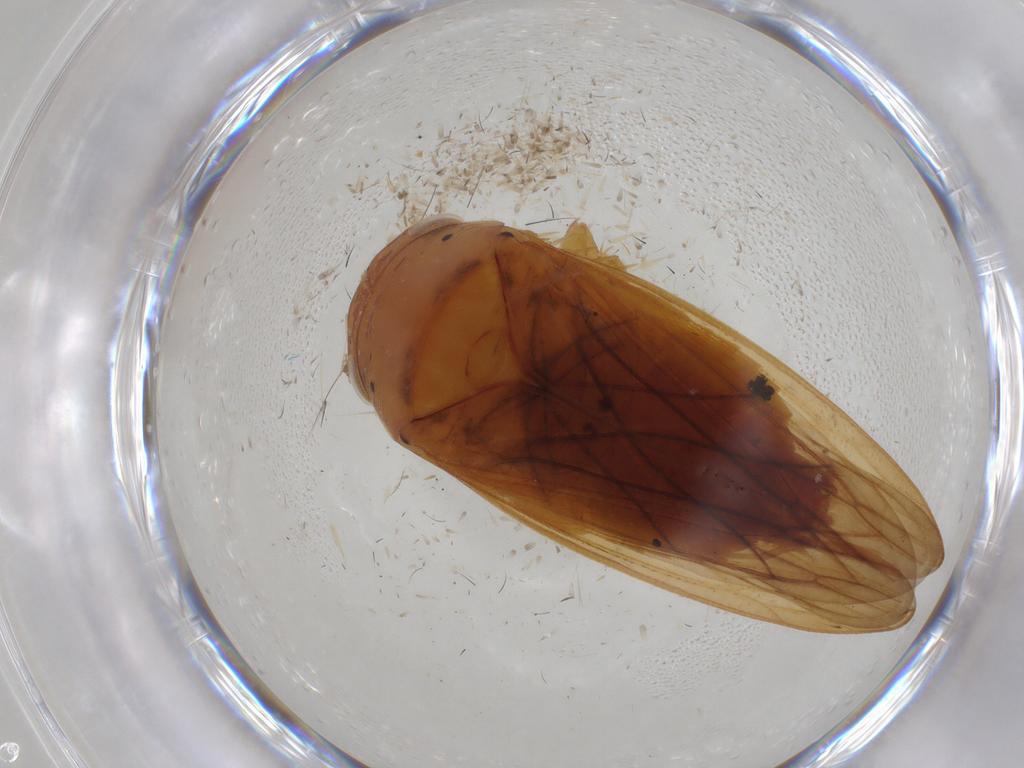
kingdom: Animalia
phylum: Arthropoda
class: Insecta
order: Hemiptera
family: Cicadellidae
